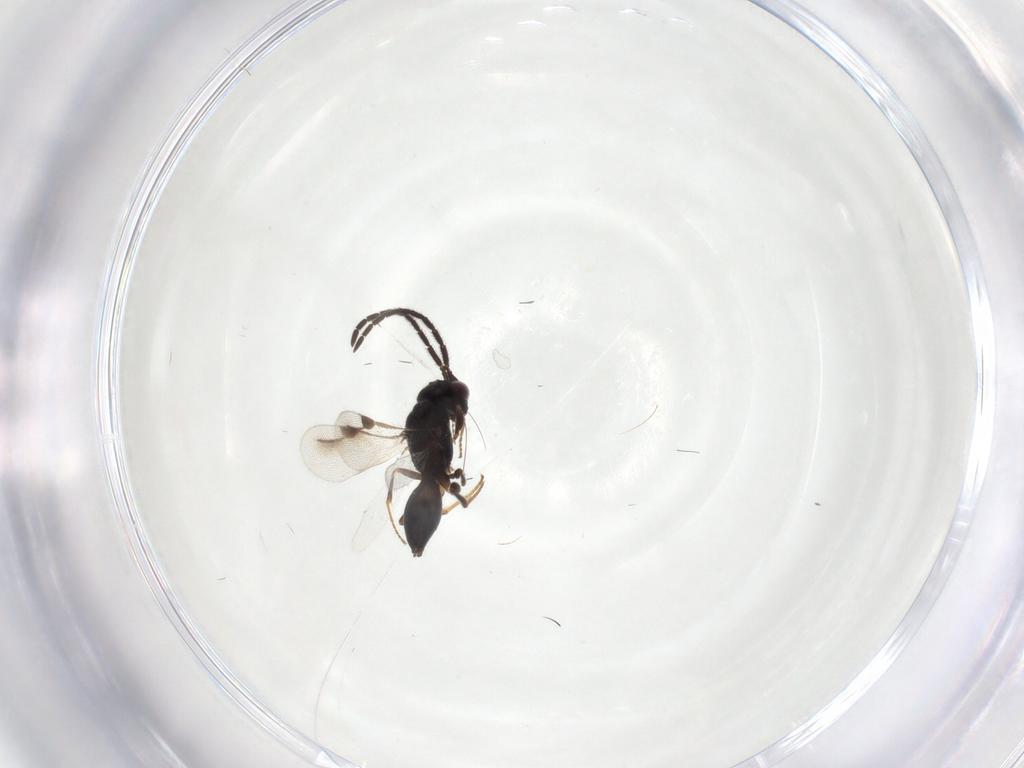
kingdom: Animalia
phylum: Arthropoda
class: Insecta
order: Hymenoptera
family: Megaspilidae
